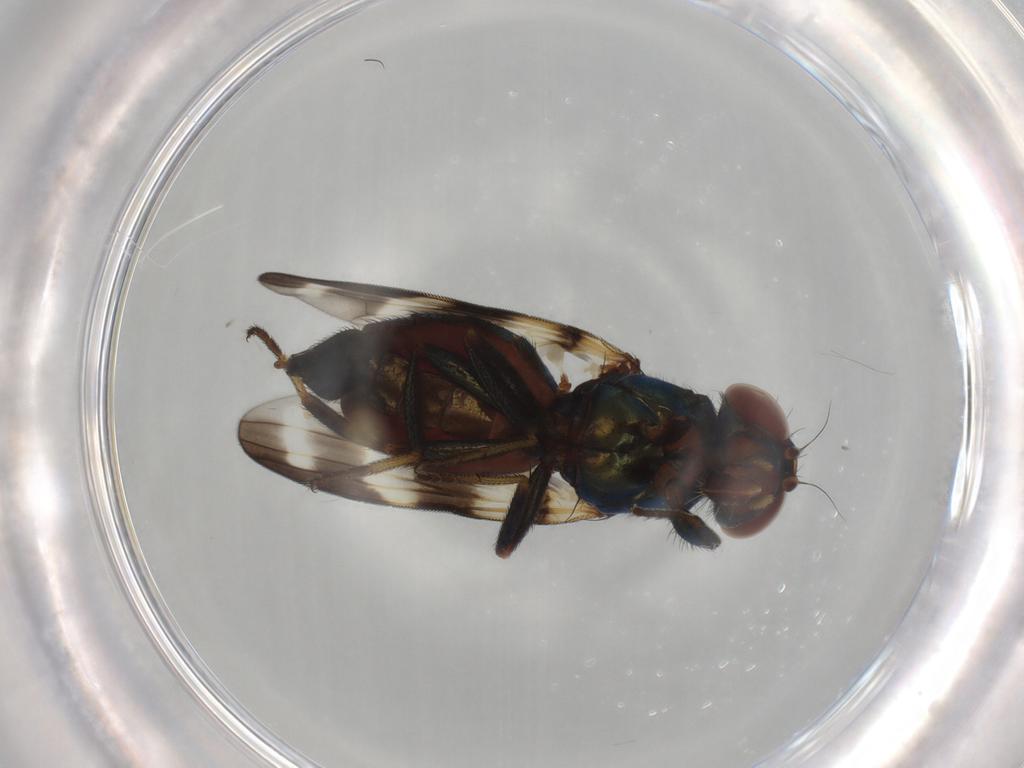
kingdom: Animalia
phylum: Arthropoda
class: Insecta
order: Diptera
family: Ulidiidae
